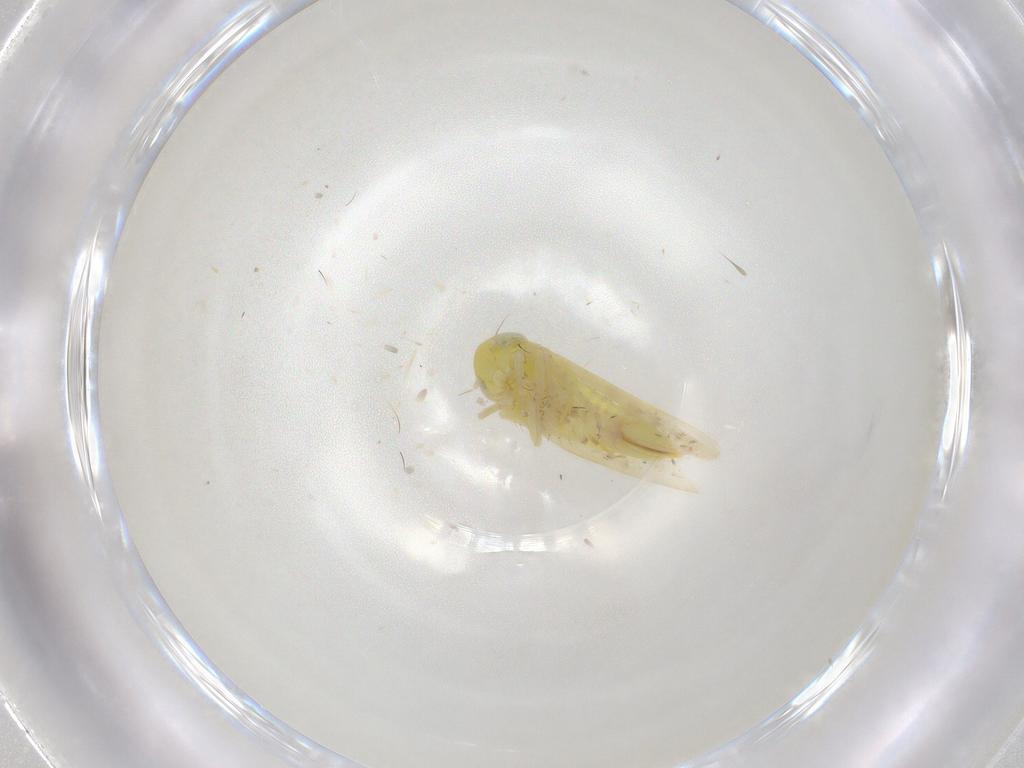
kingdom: Animalia
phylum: Arthropoda
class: Insecta
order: Hemiptera
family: Cicadellidae
